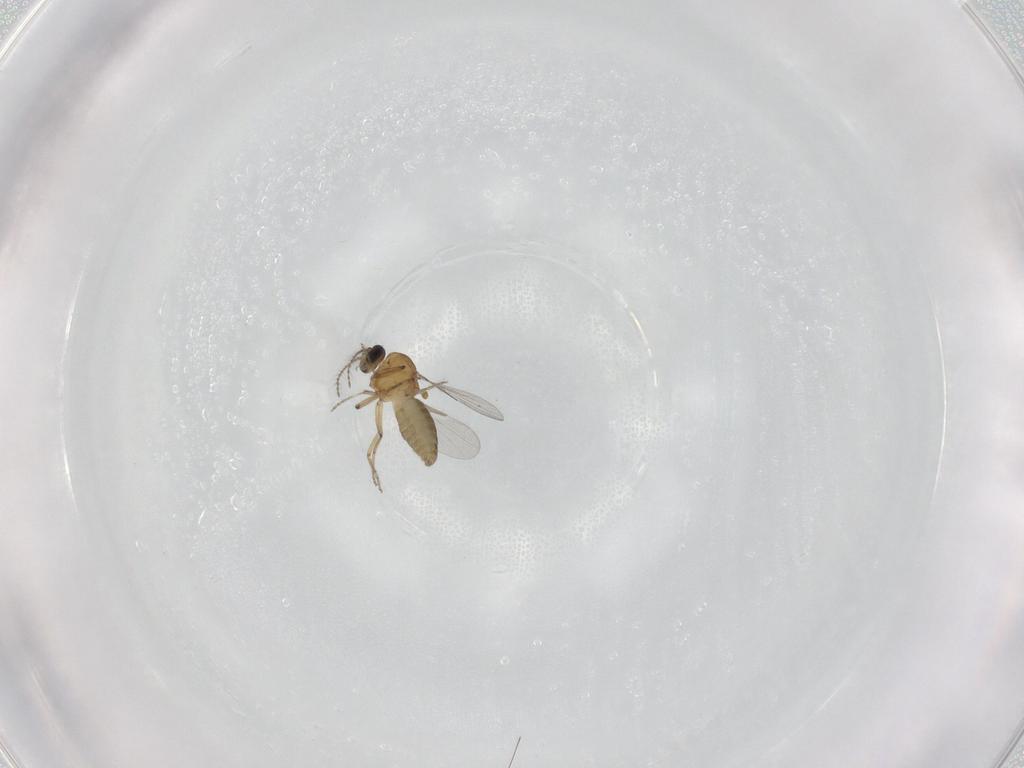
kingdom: Animalia
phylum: Arthropoda
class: Insecta
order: Diptera
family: Ceratopogonidae
